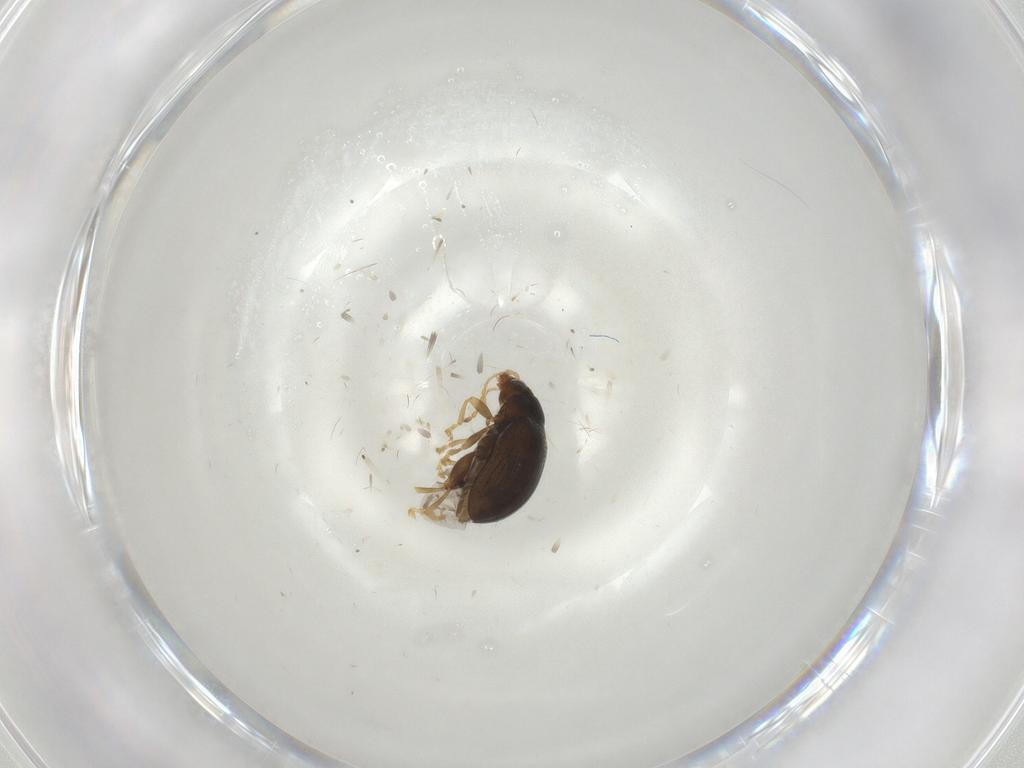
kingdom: Animalia
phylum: Arthropoda
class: Insecta
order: Coleoptera
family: Chrysomelidae
